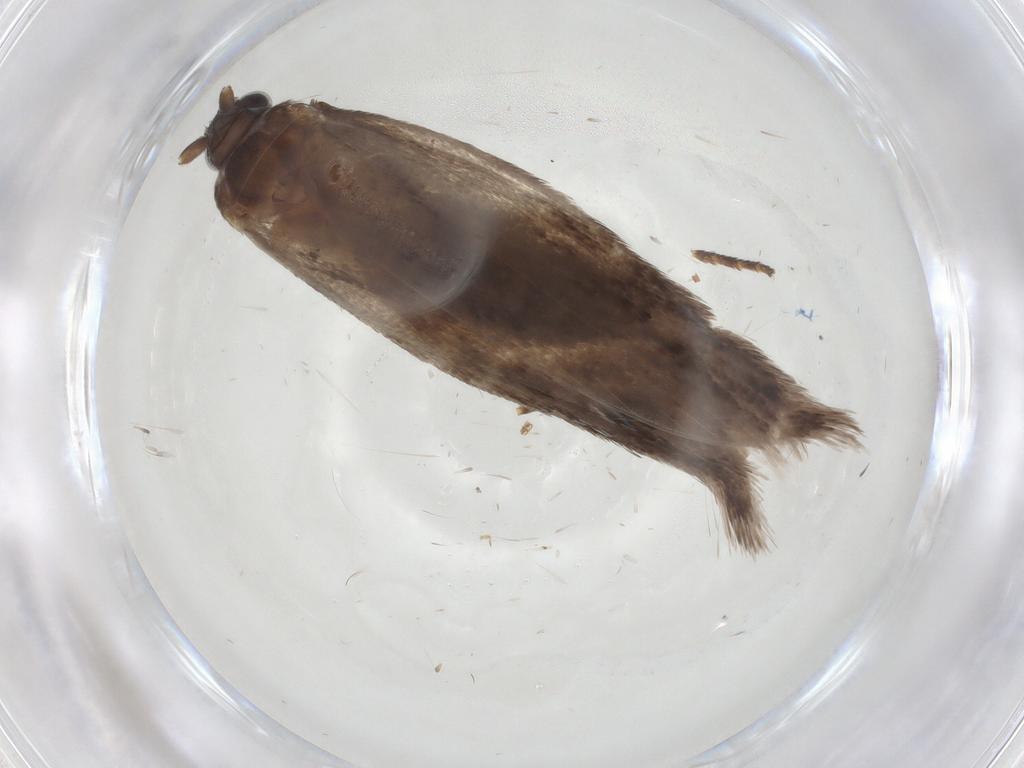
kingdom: Animalia
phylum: Arthropoda
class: Insecta
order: Lepidoptera
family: Roeslerstammiidae
